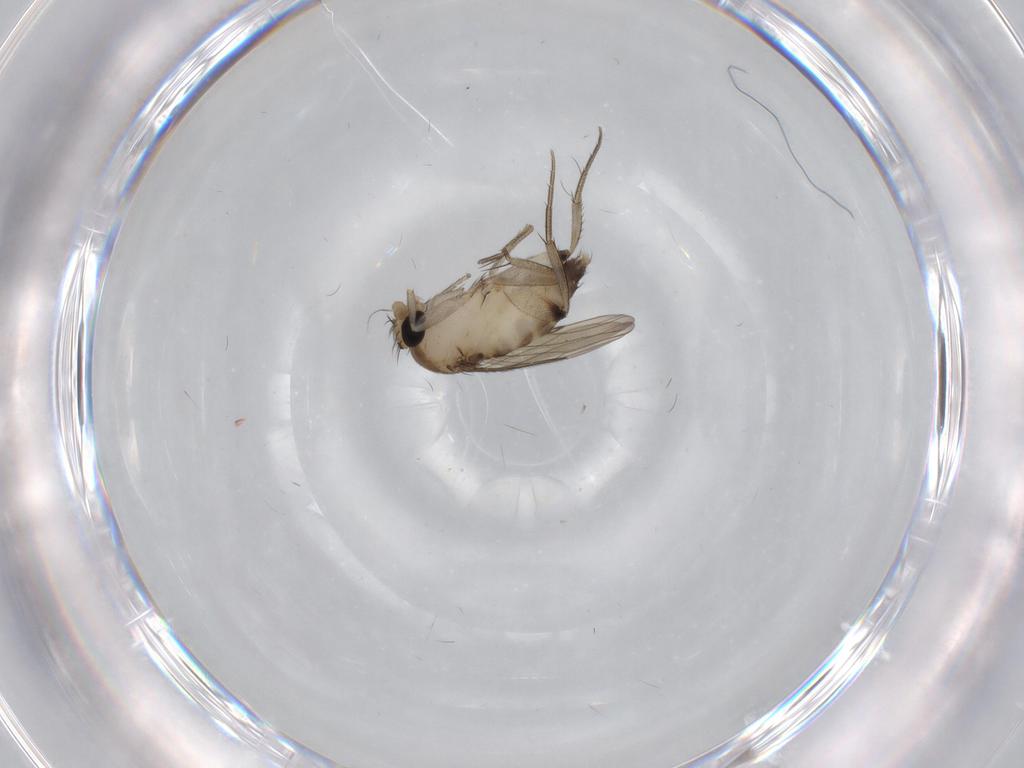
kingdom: Animalia
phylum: Arthropoda
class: Insecta
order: Diptera
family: Phoridae
